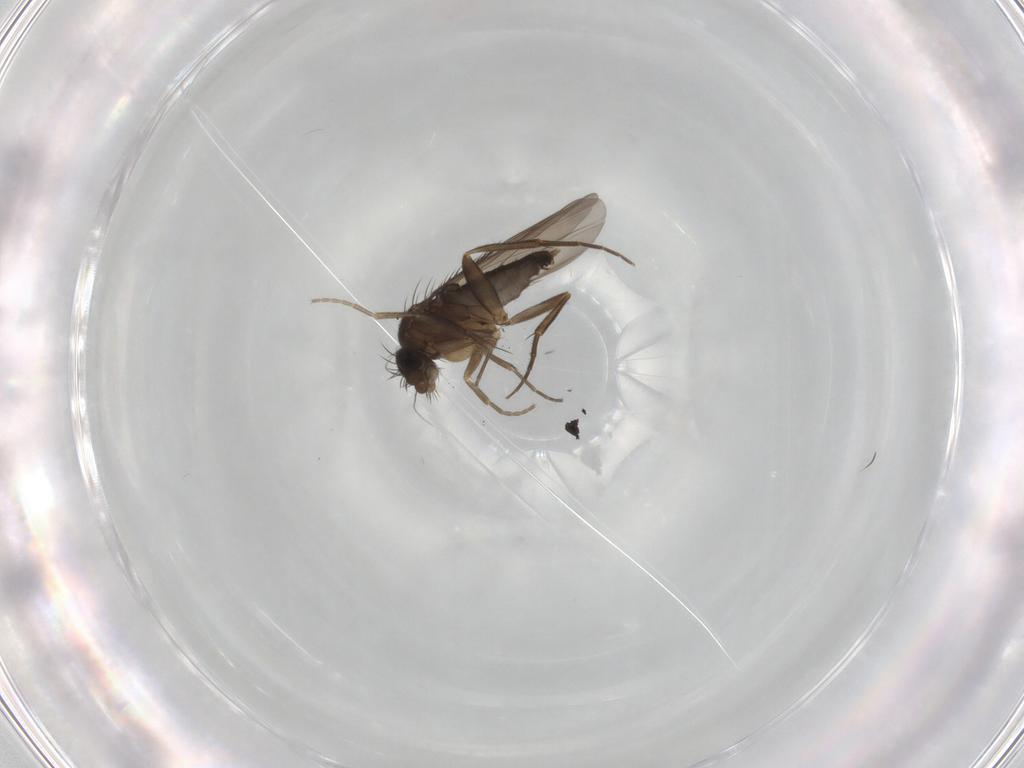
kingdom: Animalia
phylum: Arthropoda
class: Insecta
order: Diptera
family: Phoridae
